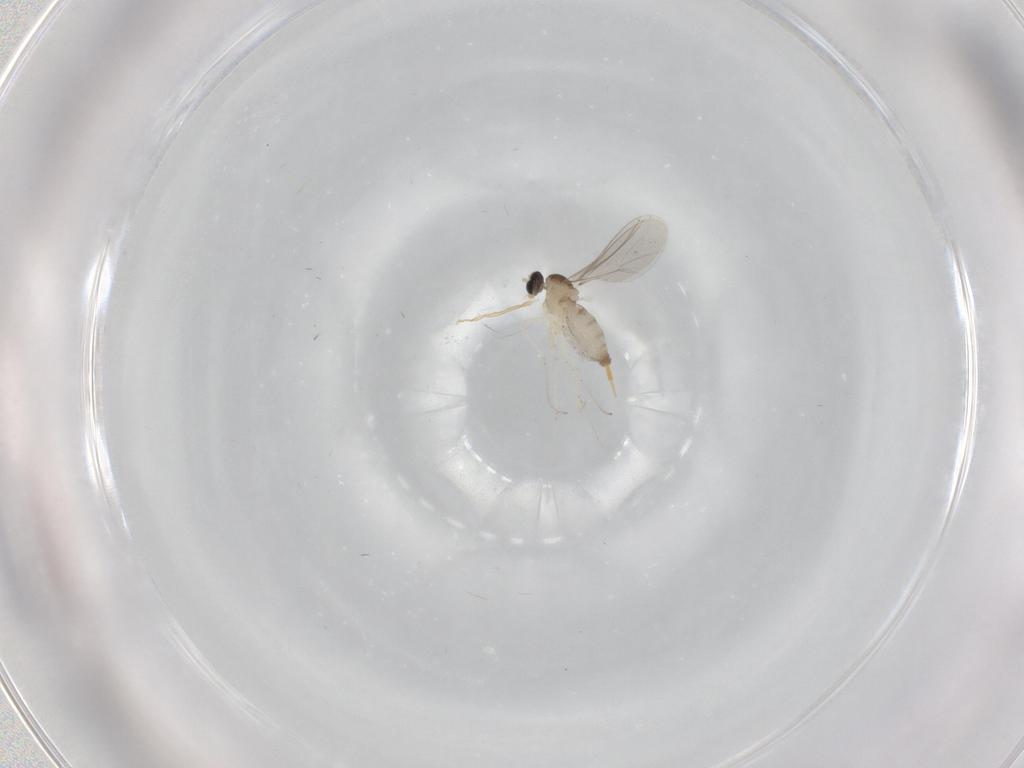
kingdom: Animalia
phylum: Arthropoda
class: Insecta
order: Diptera
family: Cecidomyiidae
